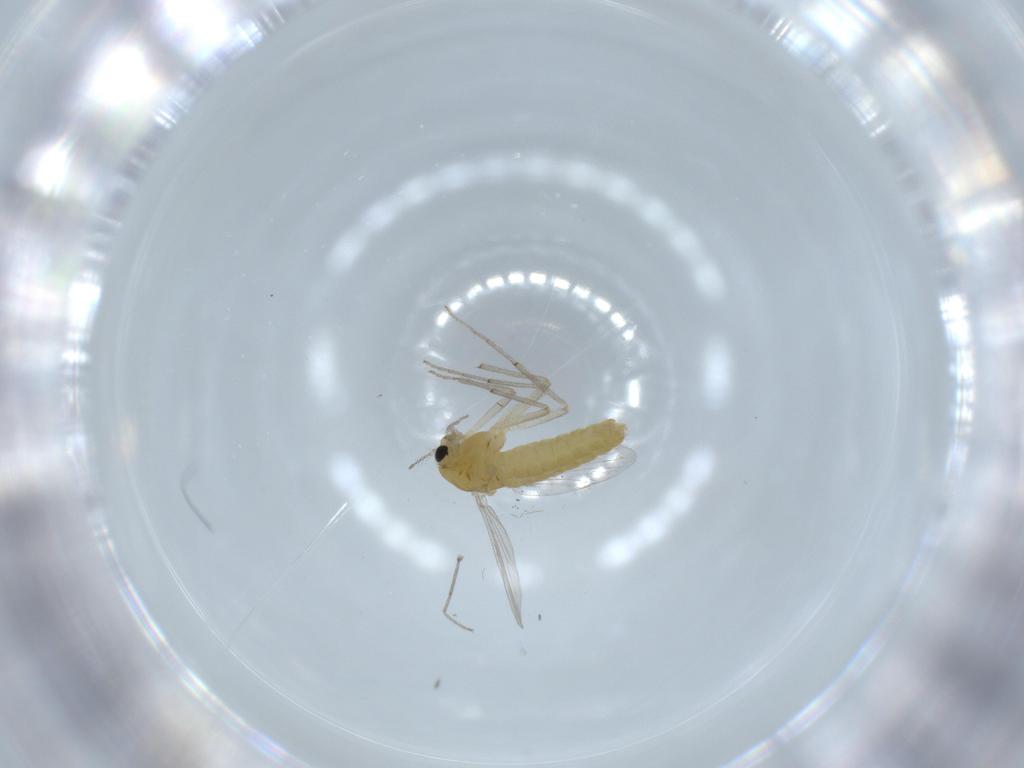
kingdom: Animalia
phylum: Arthropoda
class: Insecta
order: Diptera
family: Chironomidae
